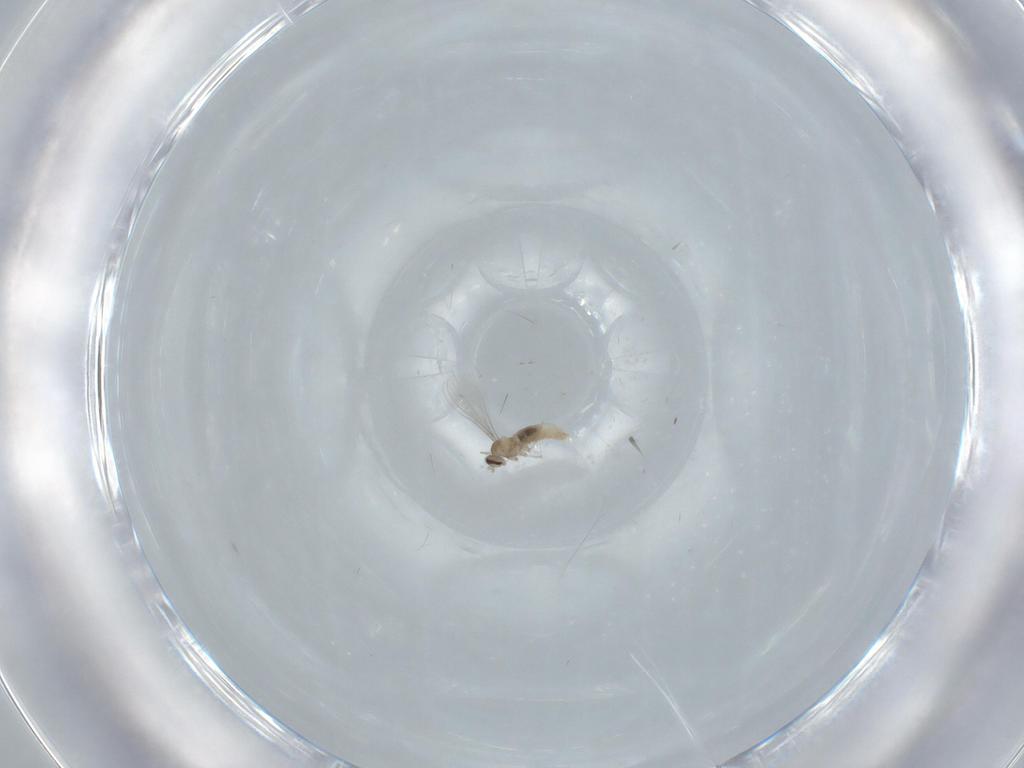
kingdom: Animalia
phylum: Arthropoda
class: Insecta
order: Diptera
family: Cecidomyiidae
